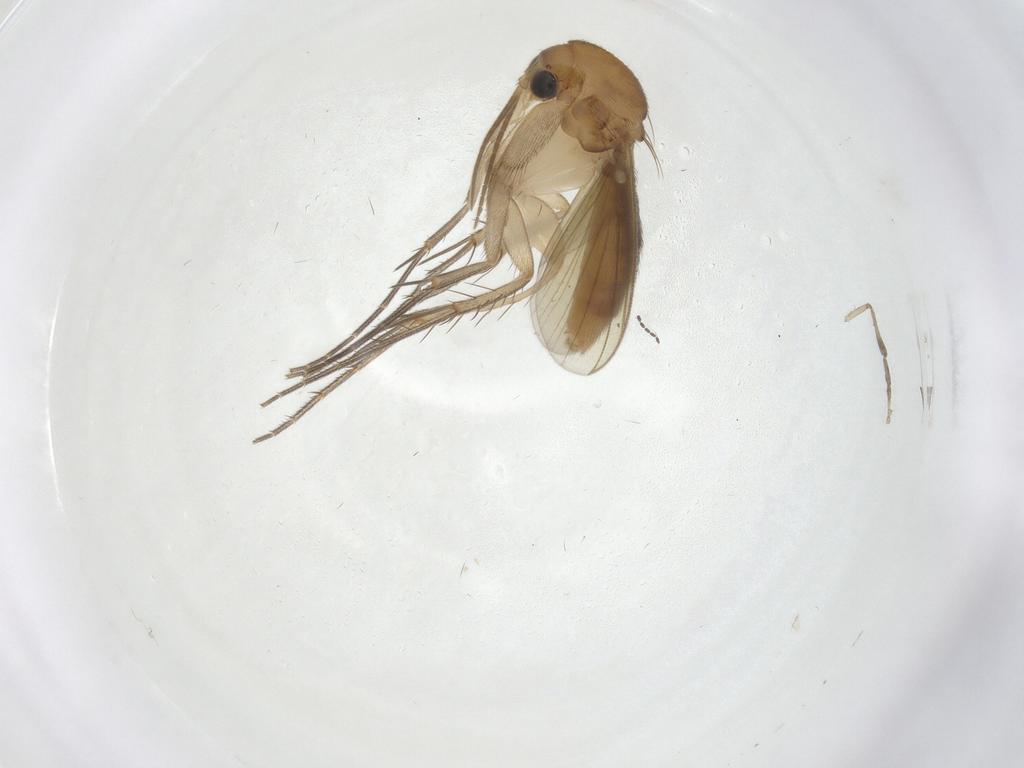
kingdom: Animalia
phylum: Arthropoda
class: Insecta
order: Diptera
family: Mycetophilidae
